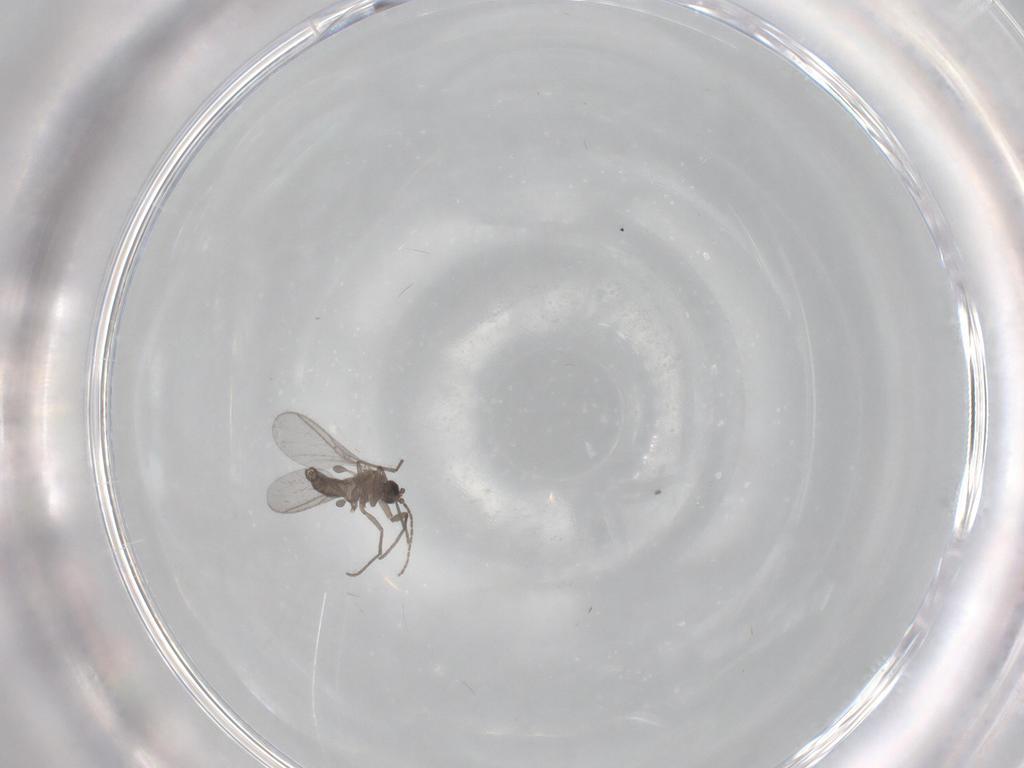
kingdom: Animalia
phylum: Arthropoda
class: Insecta
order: Diptera
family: Sciaridae
